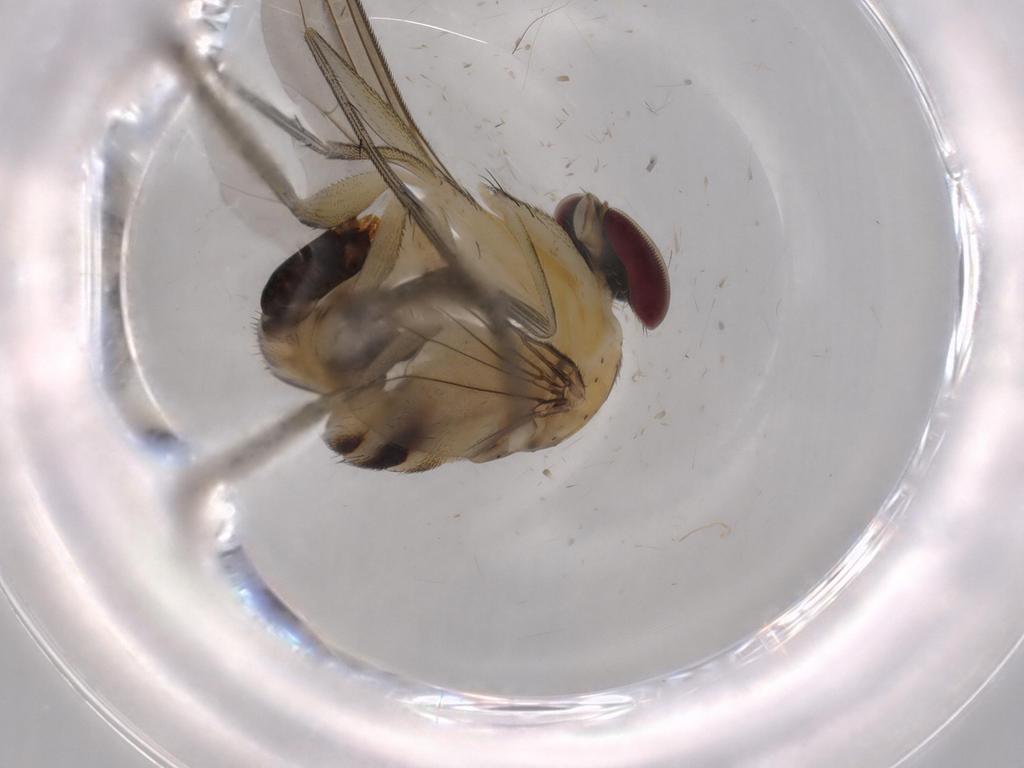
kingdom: Animalia
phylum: Arthropoda
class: Insecta
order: Diptera
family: Dolichopodidae
